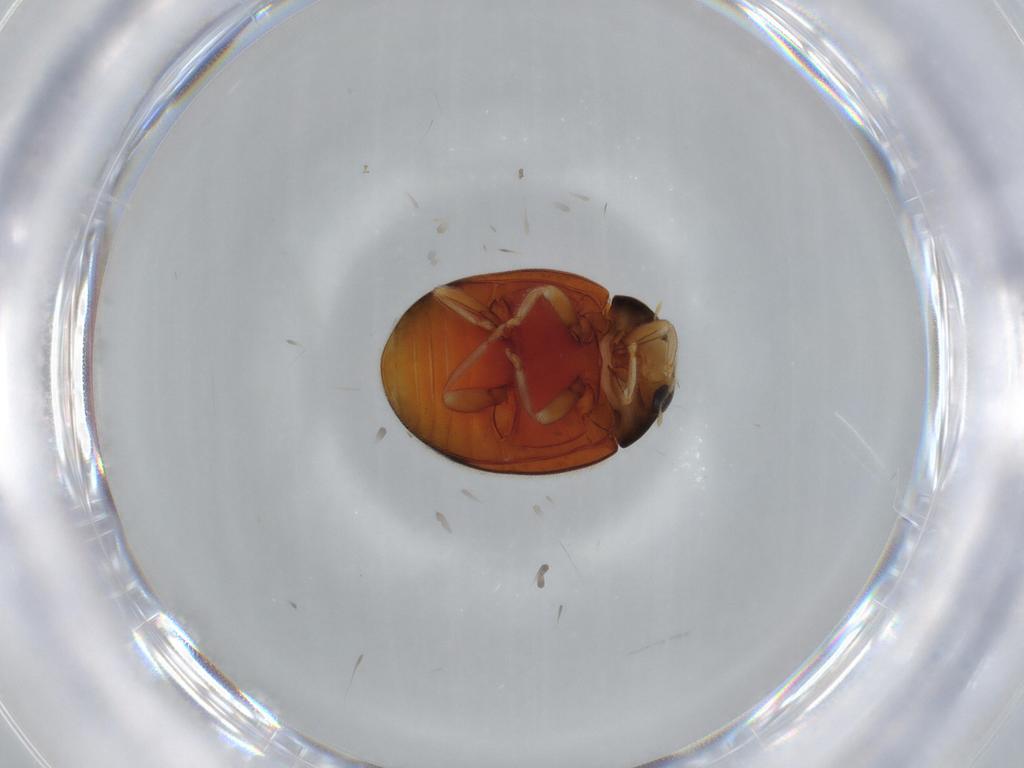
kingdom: Animalia
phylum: Arthropoda
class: Insecta
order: Coleoptera
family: Coccinellidae
